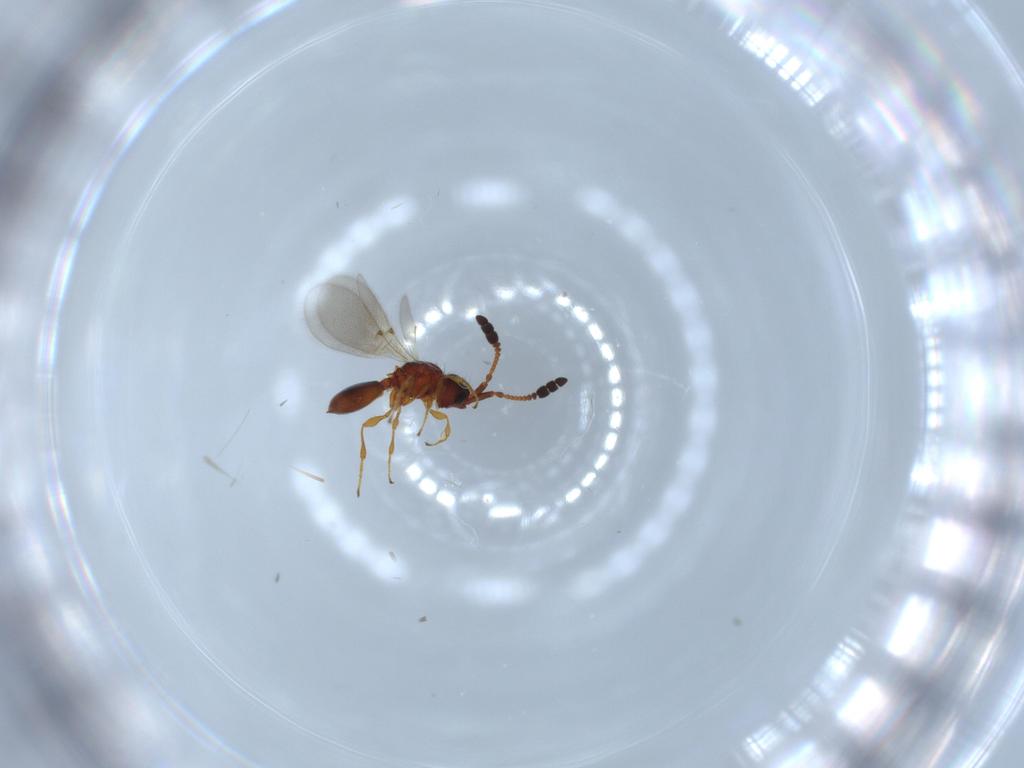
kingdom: Animalia
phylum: Arthropoda
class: Insecta
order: Hymenoptera
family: Diapriidae
